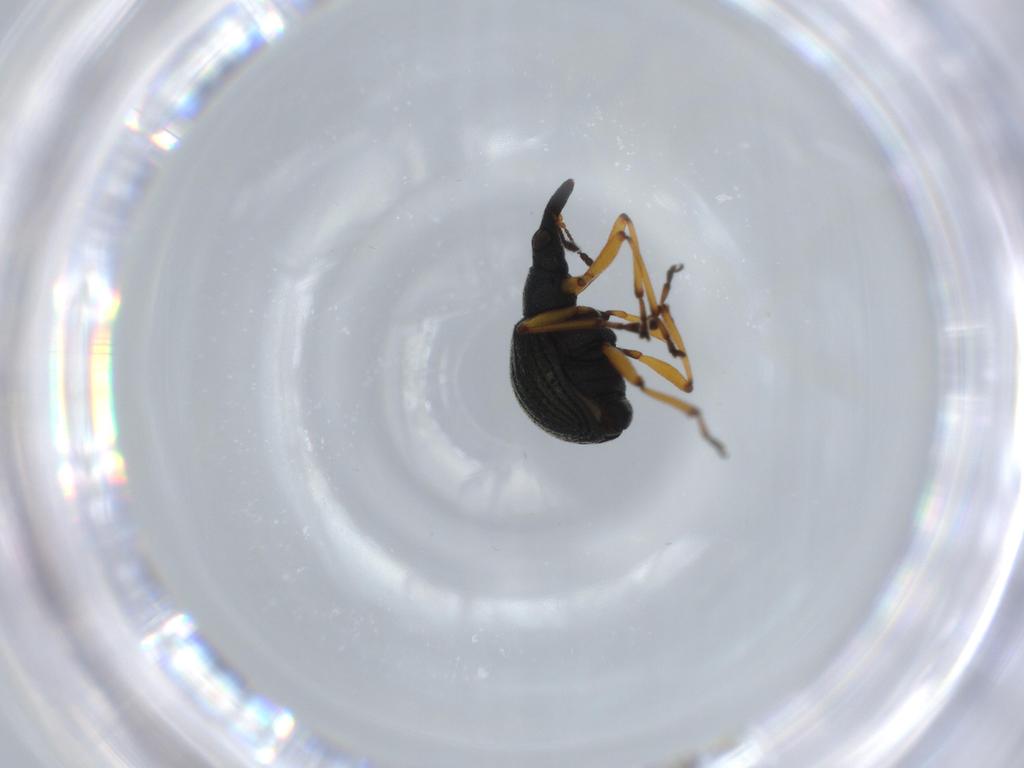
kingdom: Animalia
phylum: Arthropoda
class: Insecta
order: Coleoptera
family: Brentidae
